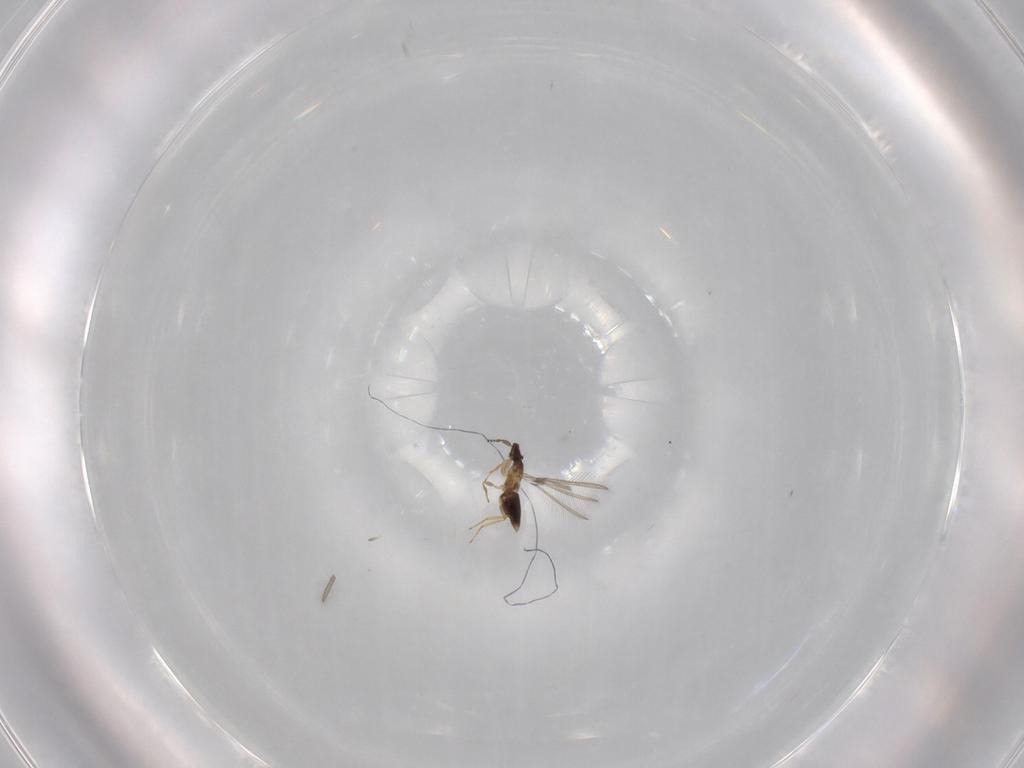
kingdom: Animalia
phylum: Arthropoda
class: Insecta
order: Hymenoptera
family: Mymaridae
